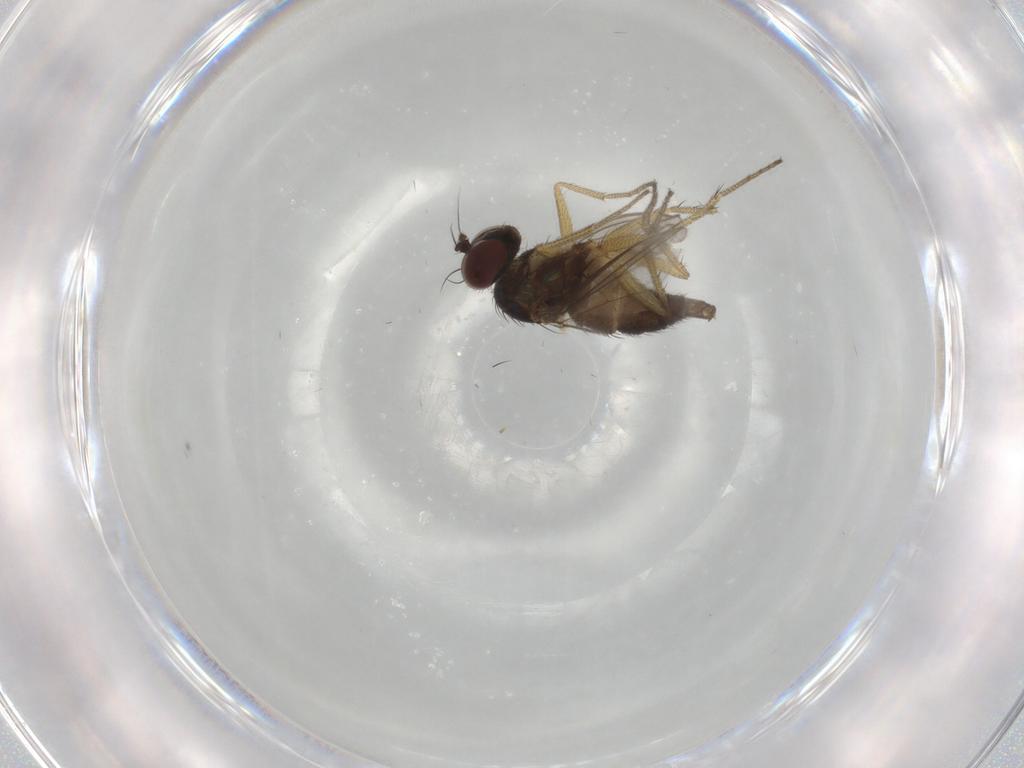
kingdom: Animalia
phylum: Arthropoda
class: Insecta
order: Diptera
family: Dolichopodidae
